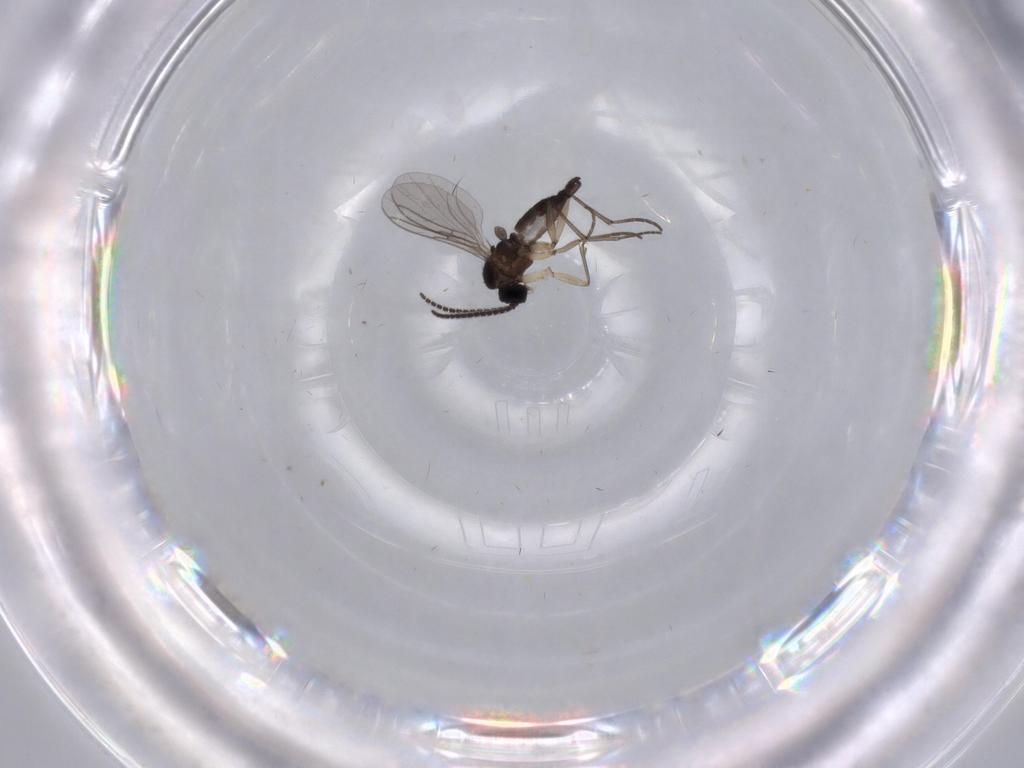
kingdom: Animalia
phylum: Arthropoda
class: Insecta
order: Diptera
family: Sciaridae
